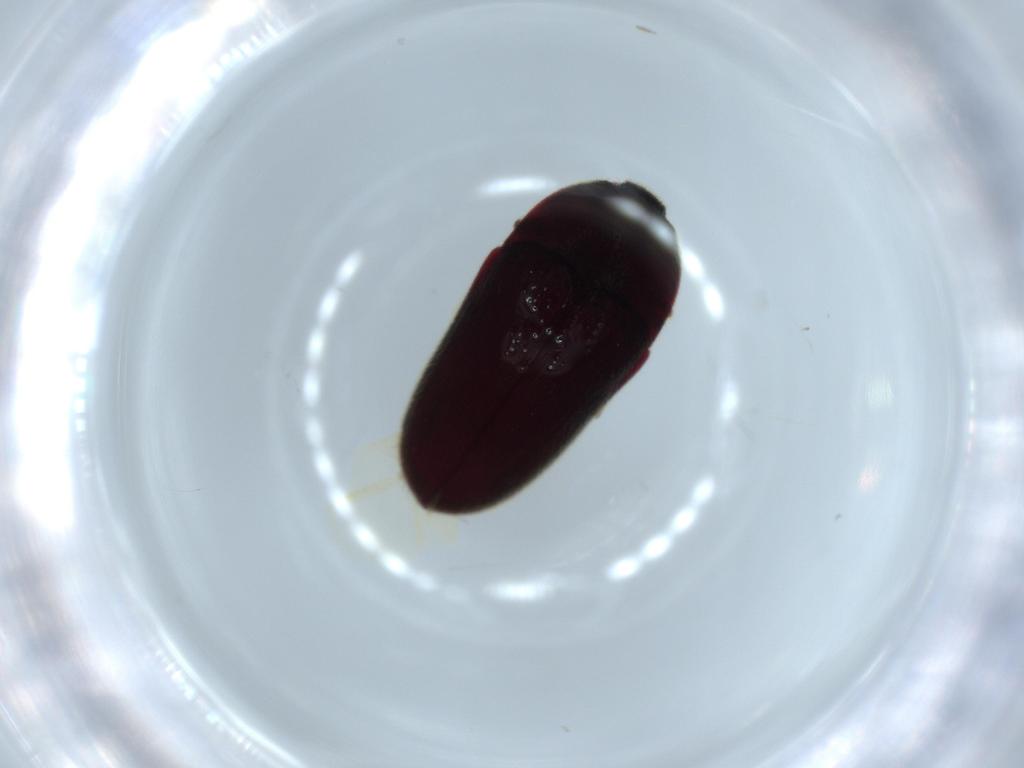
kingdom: Animalia
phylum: Arthropoda
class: Insecta
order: Coleoptera
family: Throscidae
